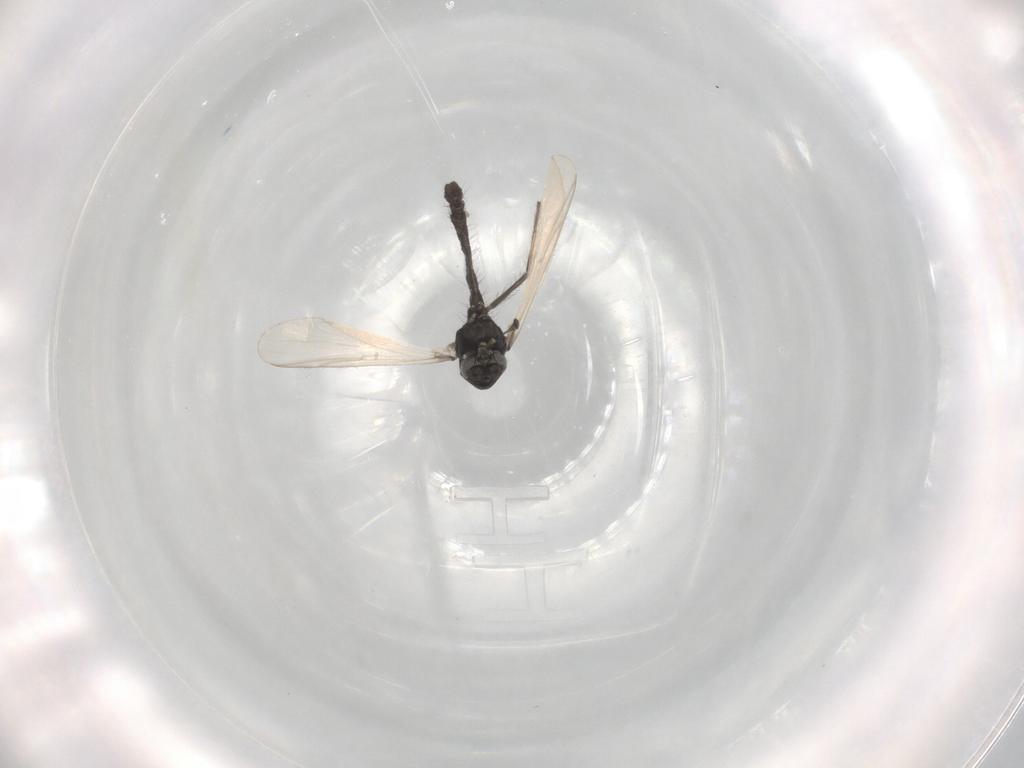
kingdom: Animalia
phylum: Arthropoda
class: Insecta
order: Diptera
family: Chironomidae
